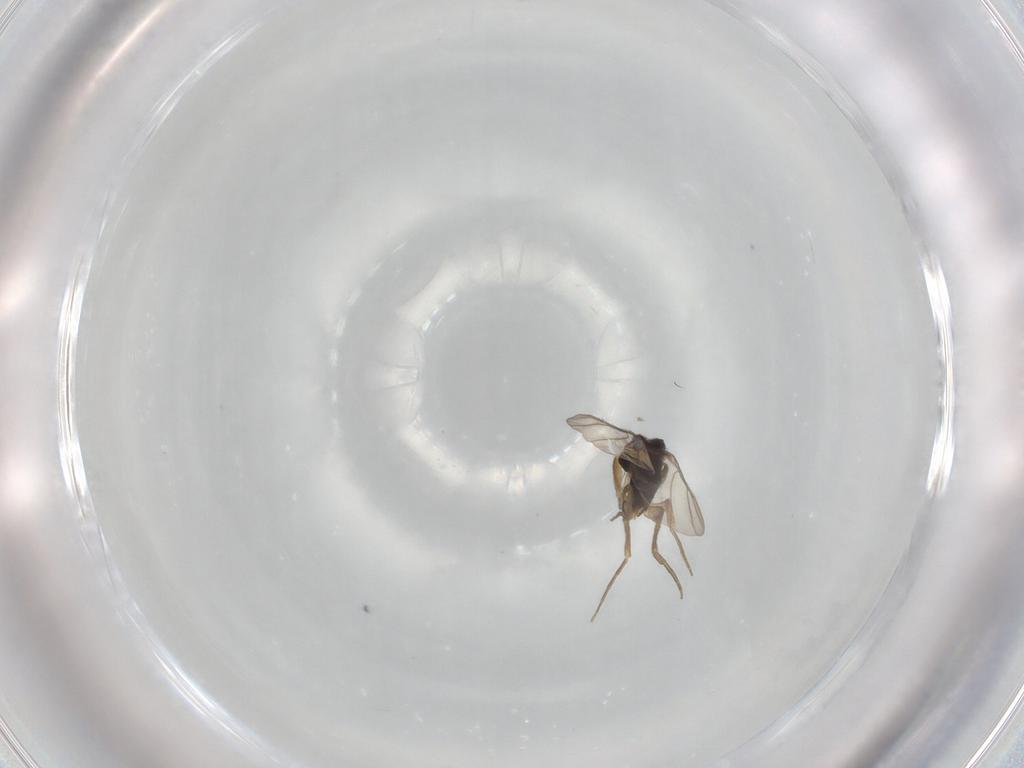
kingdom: Animalia
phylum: Arthropoda
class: Insecta
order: Diptera
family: Phoridae
